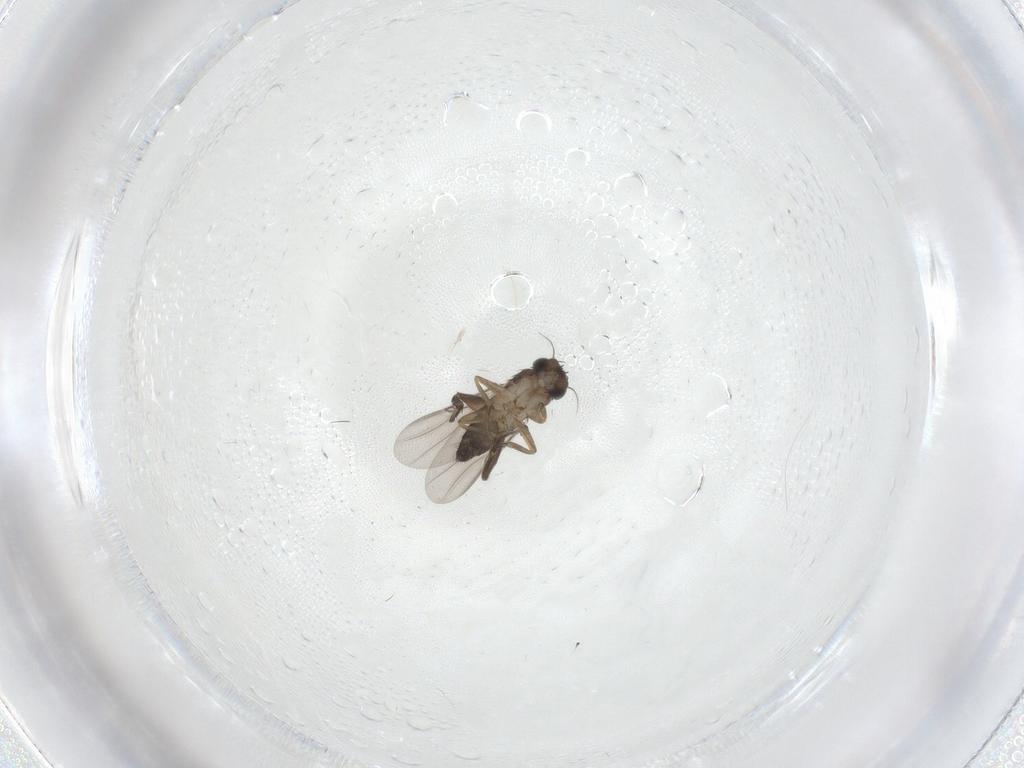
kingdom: Animalia
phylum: Arthropoda
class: Insecta
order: Diptera
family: Phoridae
